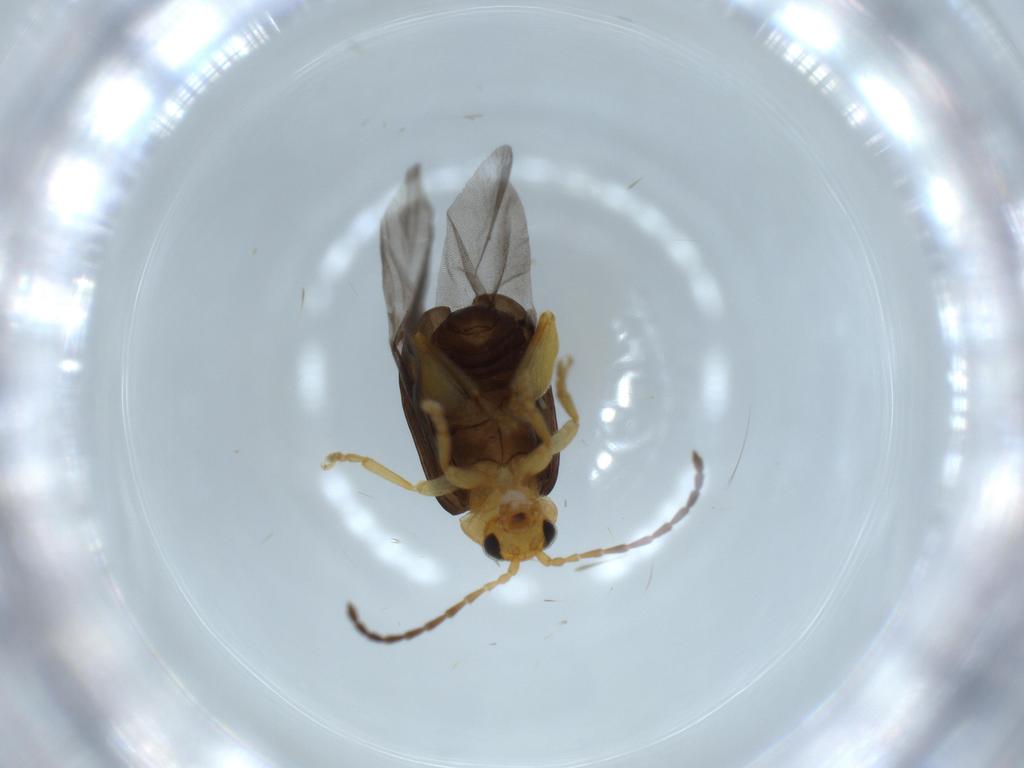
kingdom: Animalia
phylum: Arthropoda
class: Insecta
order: Coleoptera
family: Chrysomelidae
